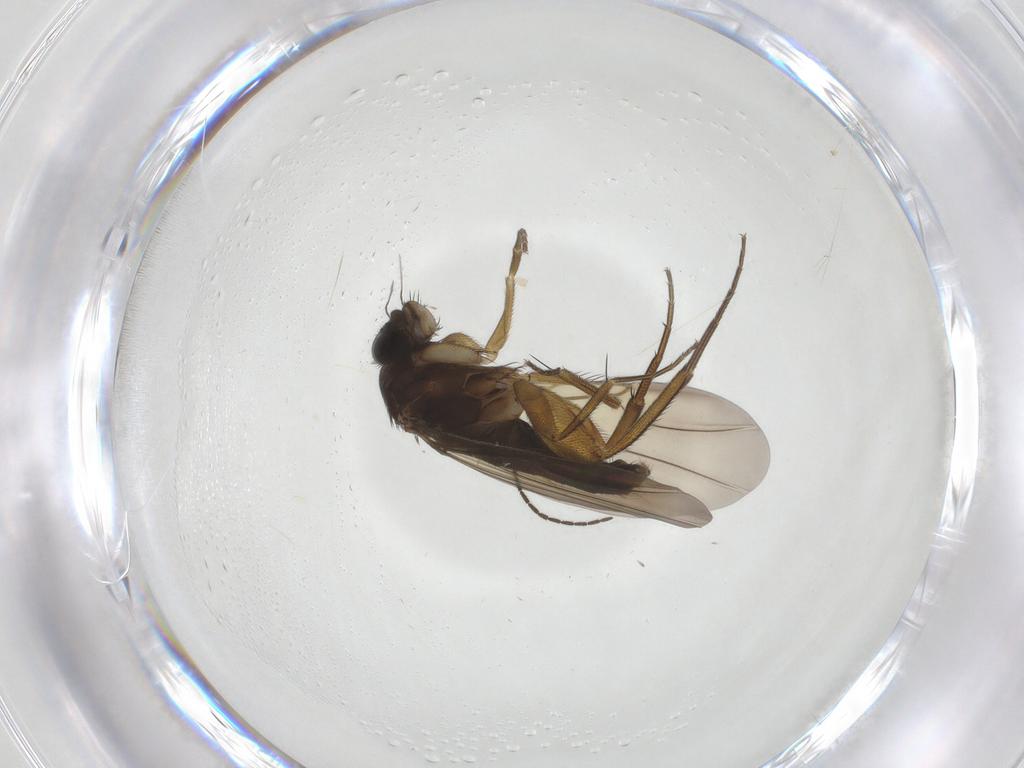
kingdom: Animalia
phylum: Arthropoda
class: Insecta
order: Diptera
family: Phoridae
